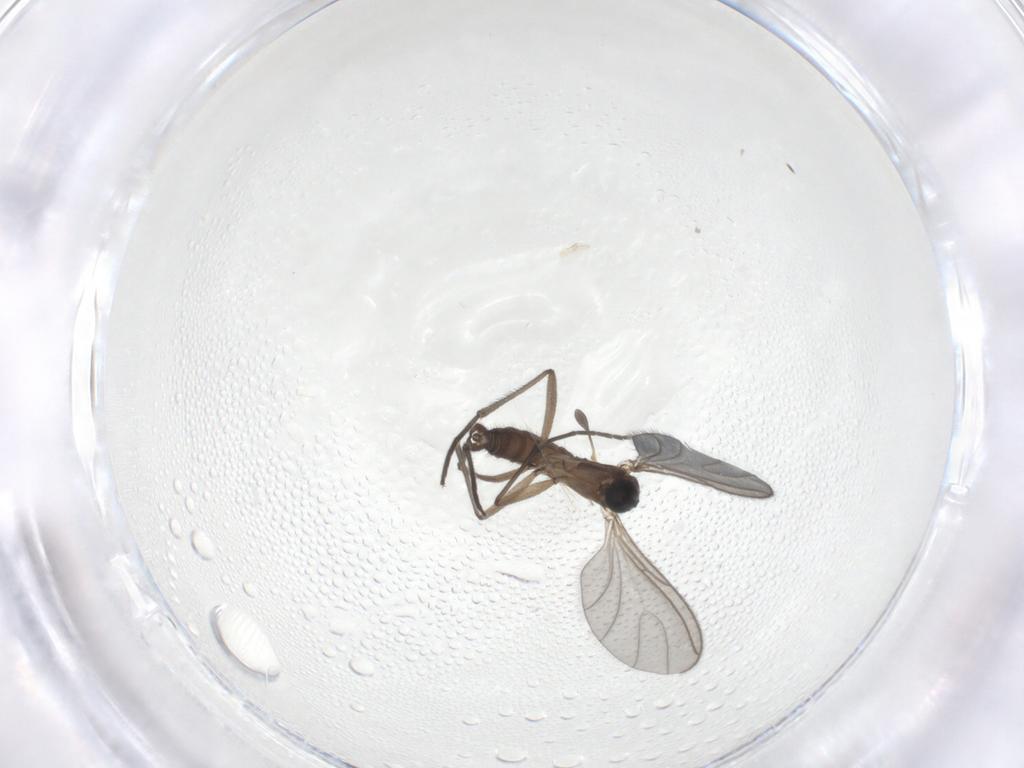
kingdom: Animalia
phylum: Arthropoda
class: Insecta
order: Diptera
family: Sciaridae
